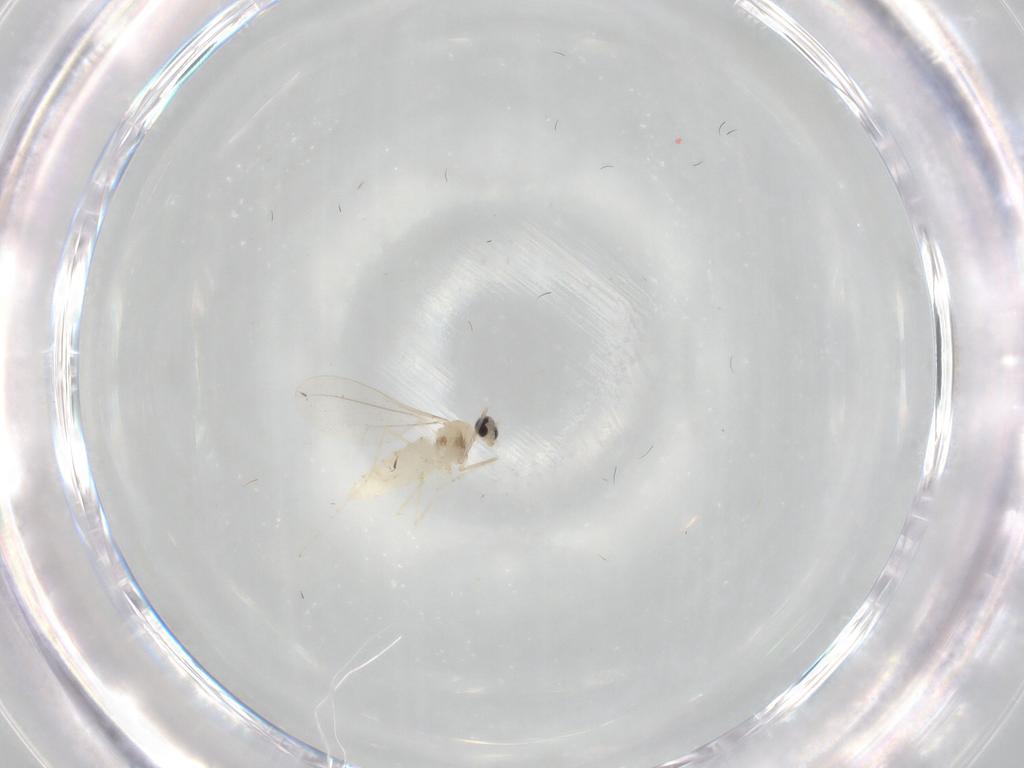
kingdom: Animalia
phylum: Arthropoda
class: Insecta
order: Diptera
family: Cecidomyiidae
